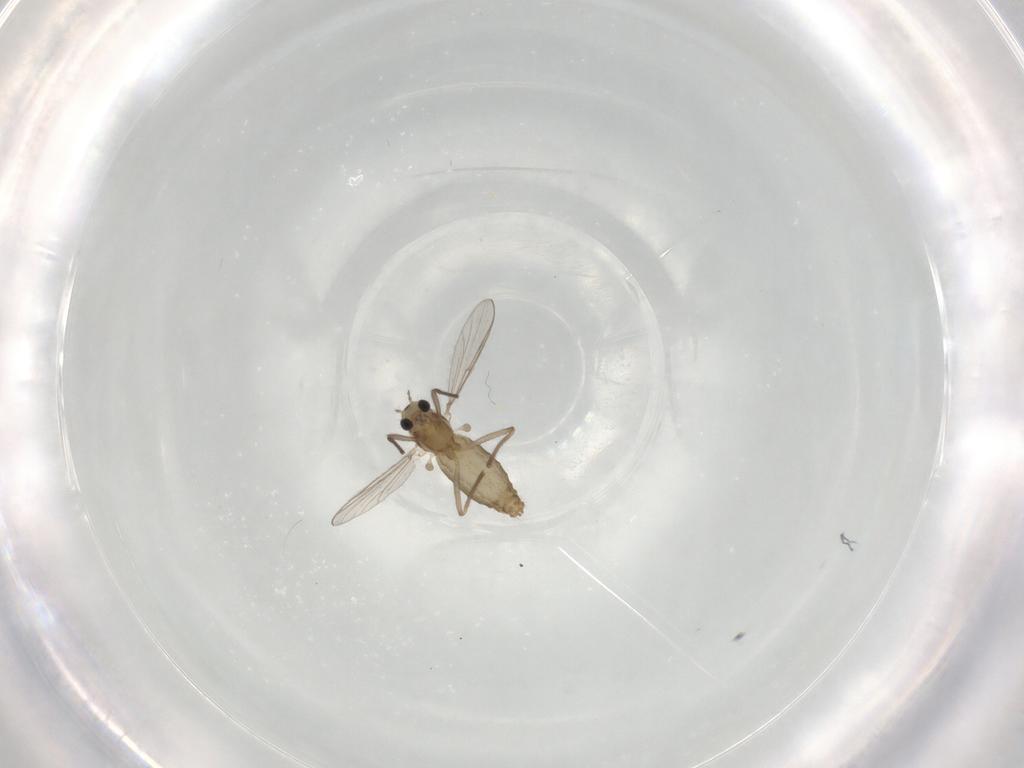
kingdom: Animalia
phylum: Arthropoda
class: Insecta
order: Diptera
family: Chironomidae
